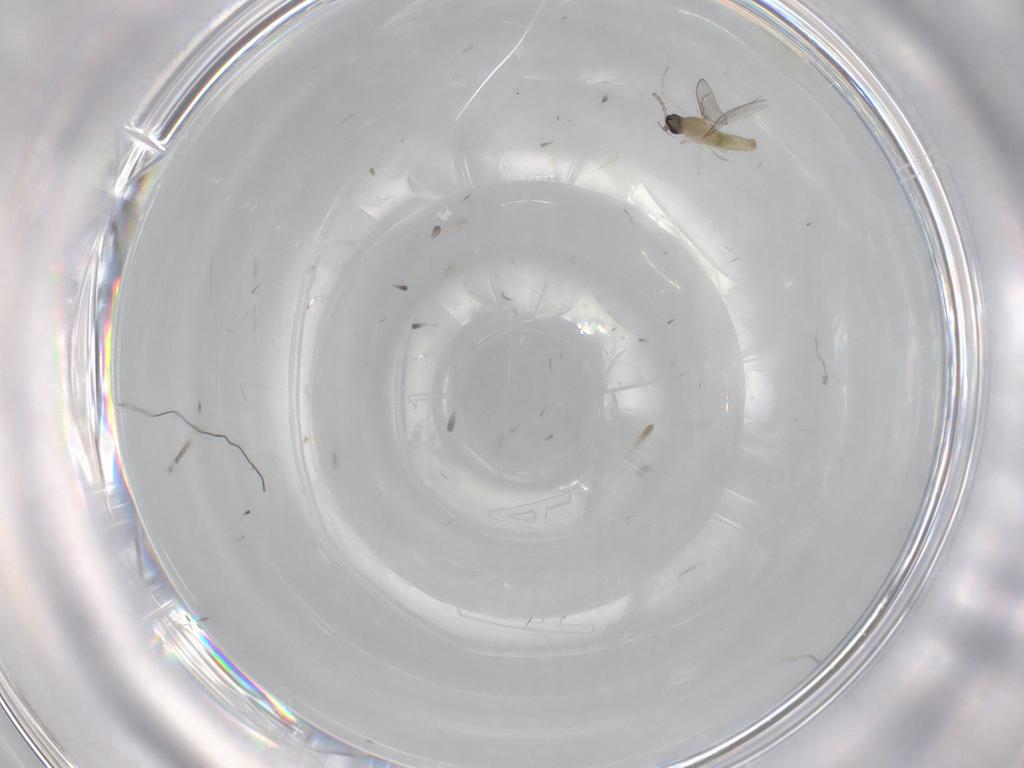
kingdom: Animalia
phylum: Arthropoda
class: Insecta
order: Diptera
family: Cecidomyiidae
